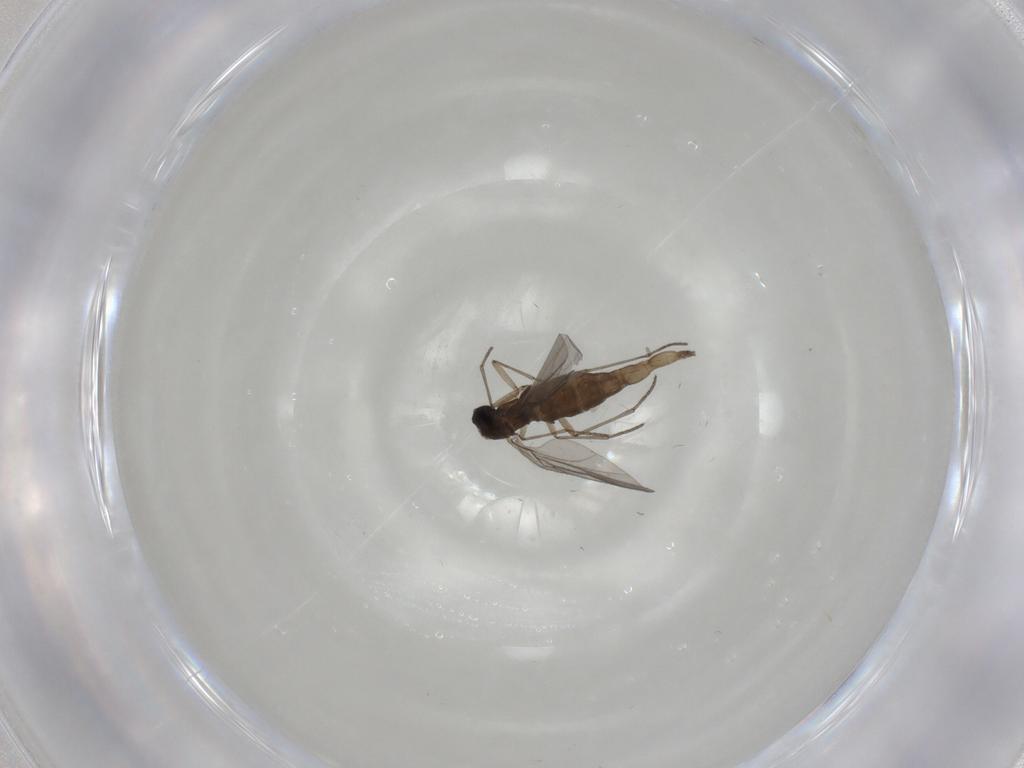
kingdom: Animalia
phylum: Arthropoda
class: Insecta
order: Diptera
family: Sciaridae
